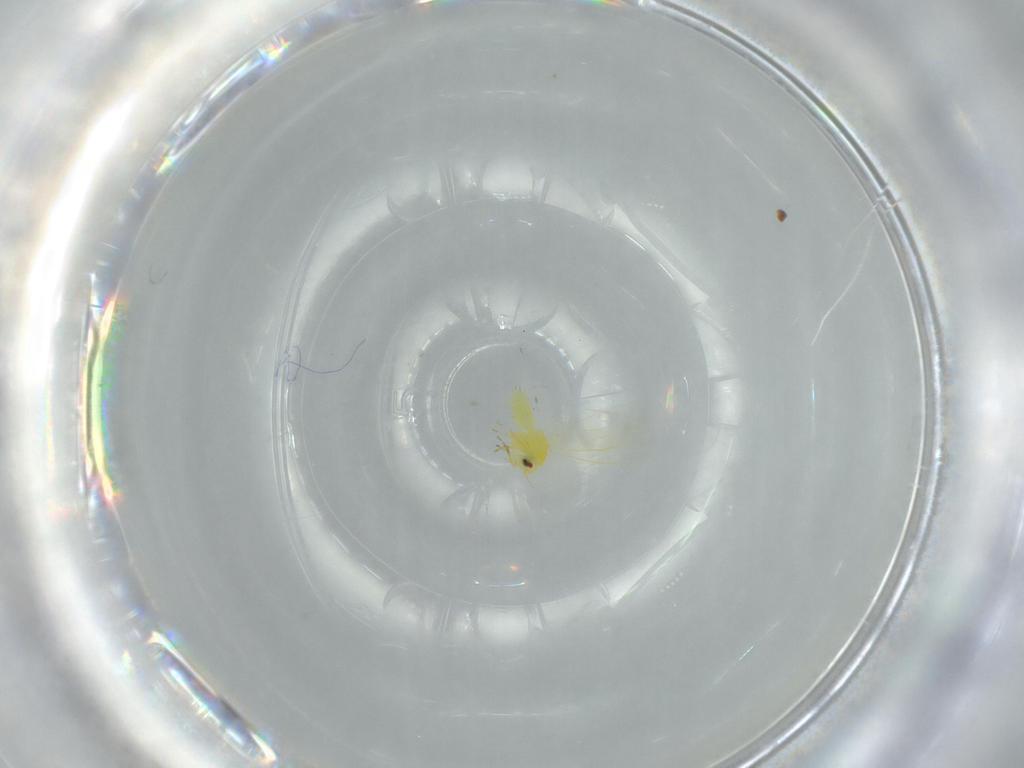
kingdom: Animalia
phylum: Arthropoda
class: Insecta
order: Hemiptera
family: Aleyrodidae
